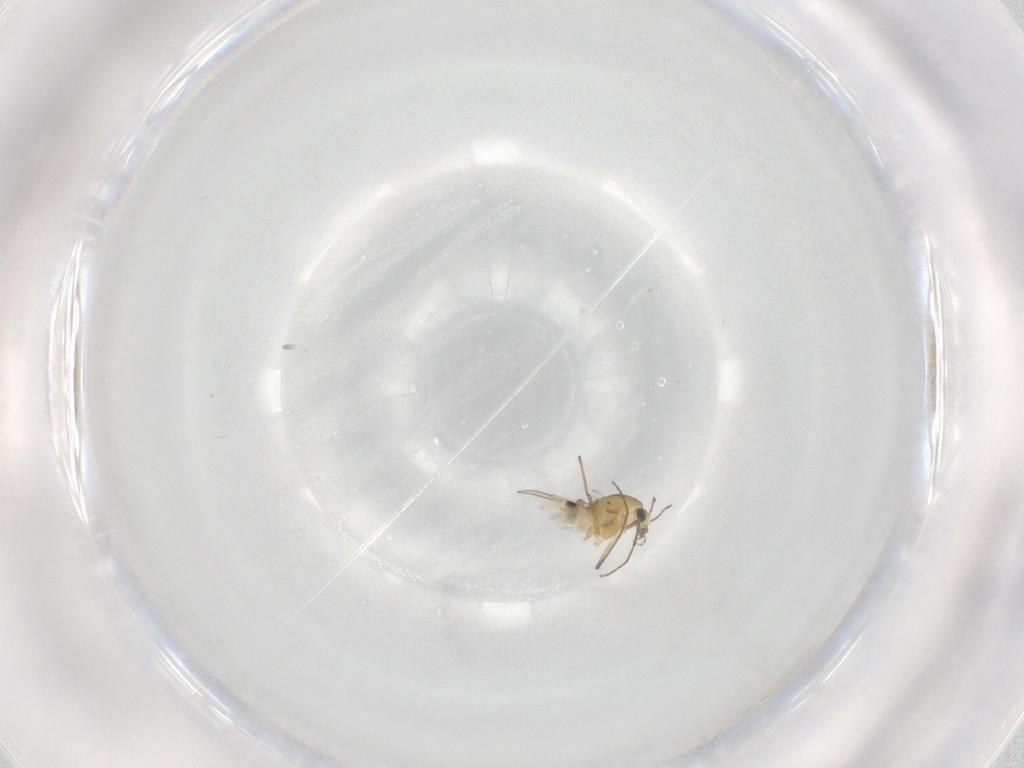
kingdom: Animalia
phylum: Arthropoda
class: Insecta
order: Diptera
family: Chironomidae
